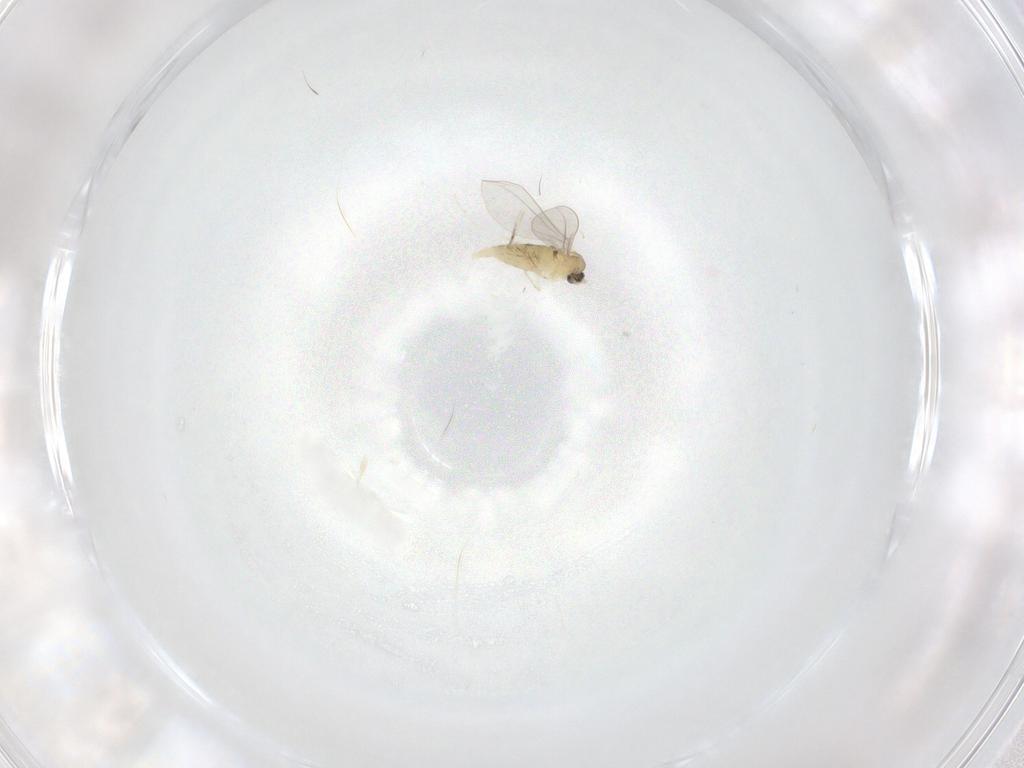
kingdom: Animalia
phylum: Arthropoda
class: Insecta
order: Diptera
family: Cecidomyiidae
